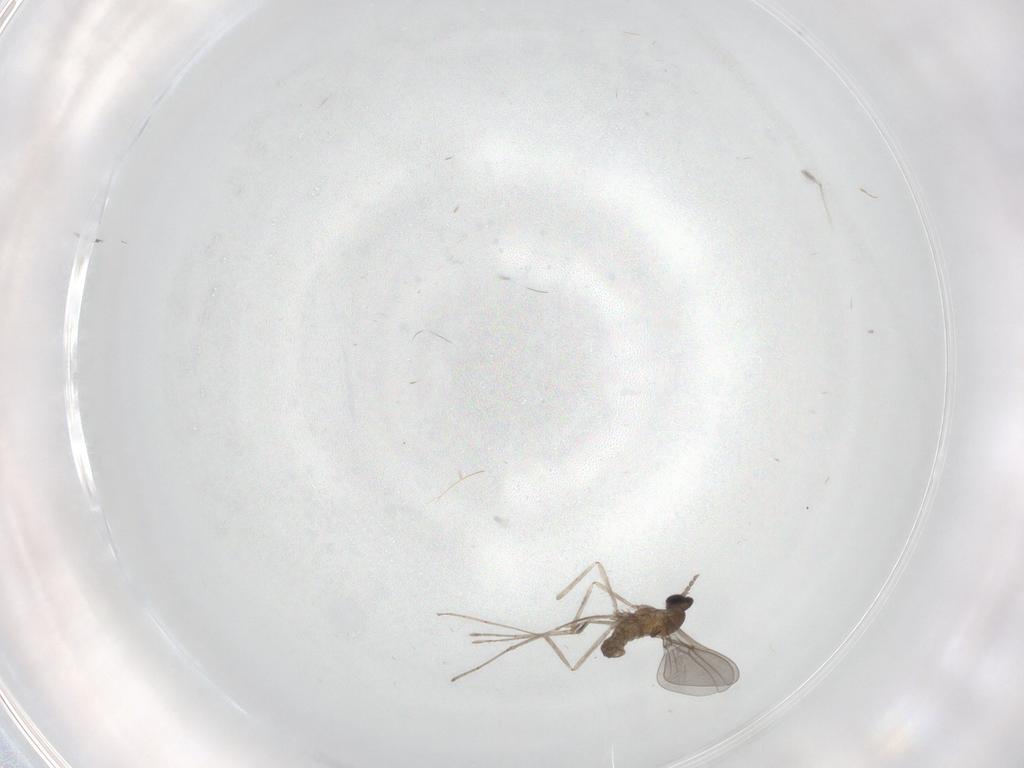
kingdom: Animalia
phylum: Arthropoda
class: Insecta
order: Diptera
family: Cecidomyiidae
